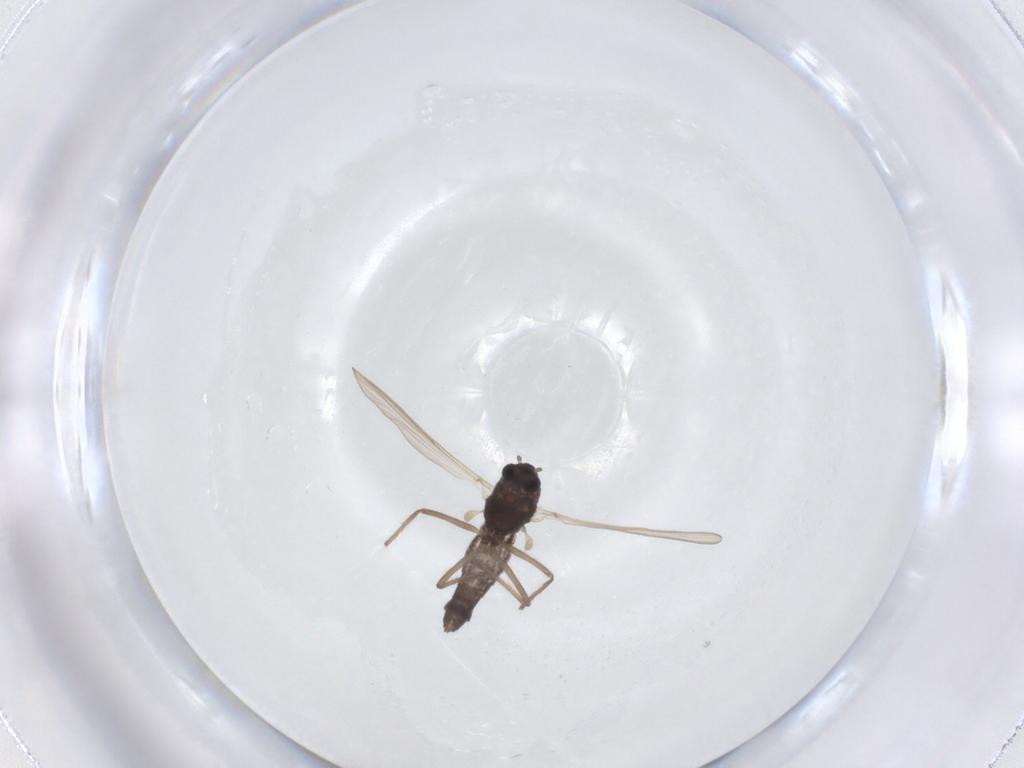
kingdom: Animalia
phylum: Arthropoda
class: Insecta
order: Diptera
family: Chironomidae
